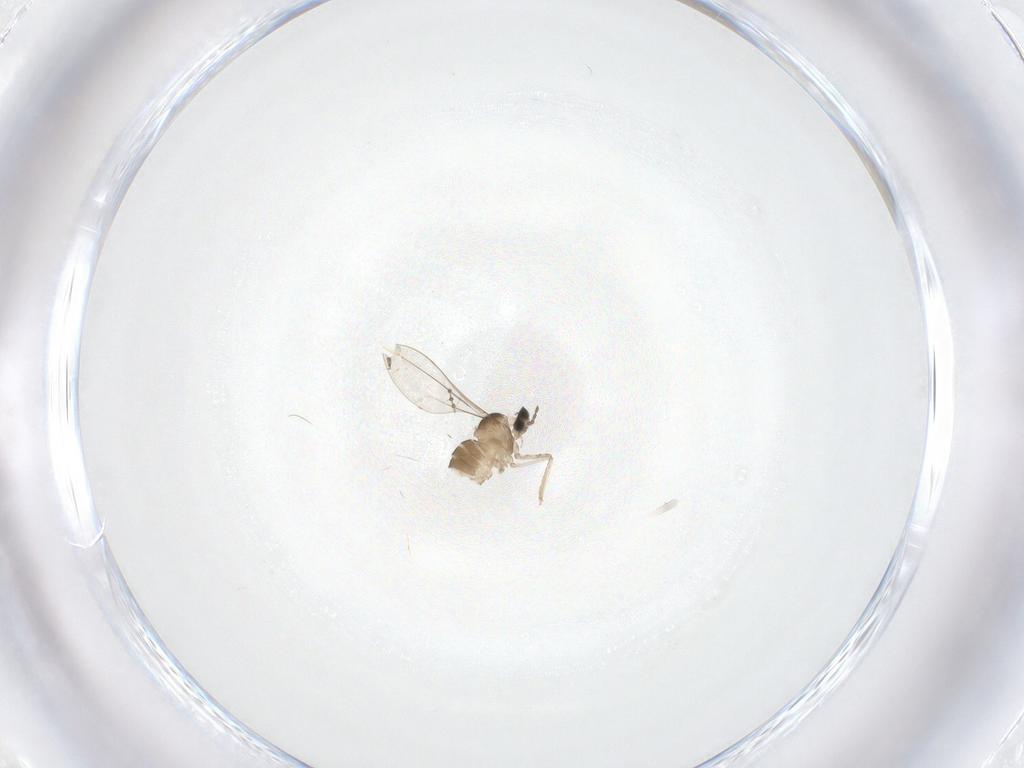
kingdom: Animalia
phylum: Arthropoda
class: Insecta
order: Diptera
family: Cecidomyiidae
